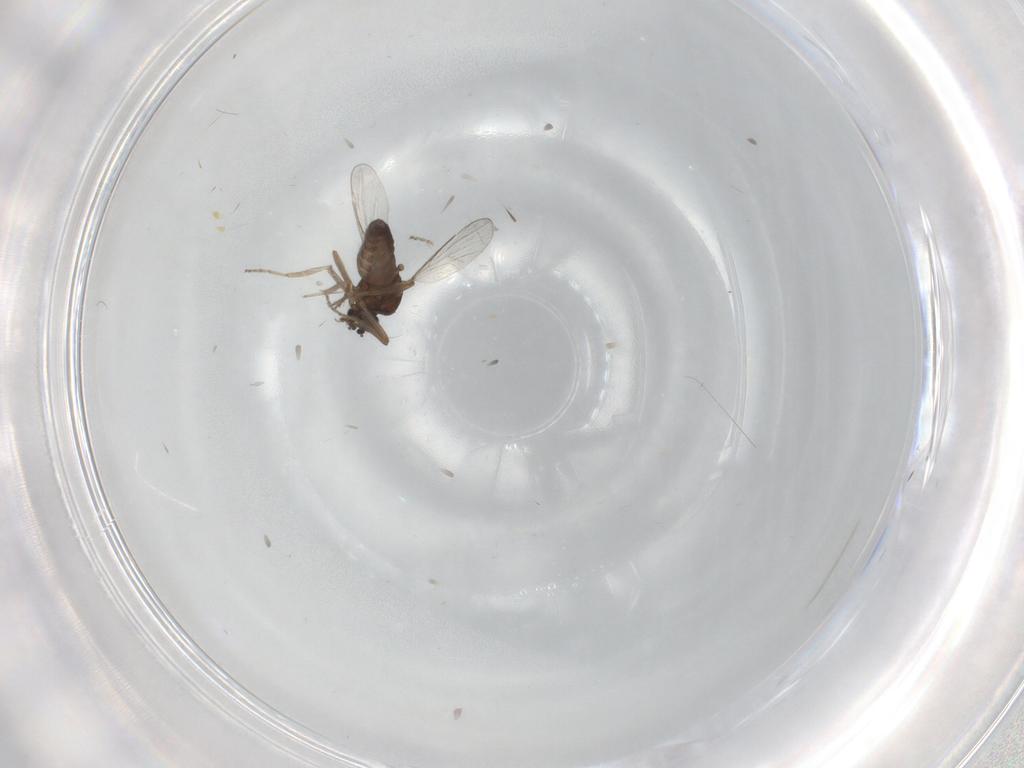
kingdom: Animalia
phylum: Arthropoda
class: Insecta
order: Diptera
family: Ceratopogonidae
